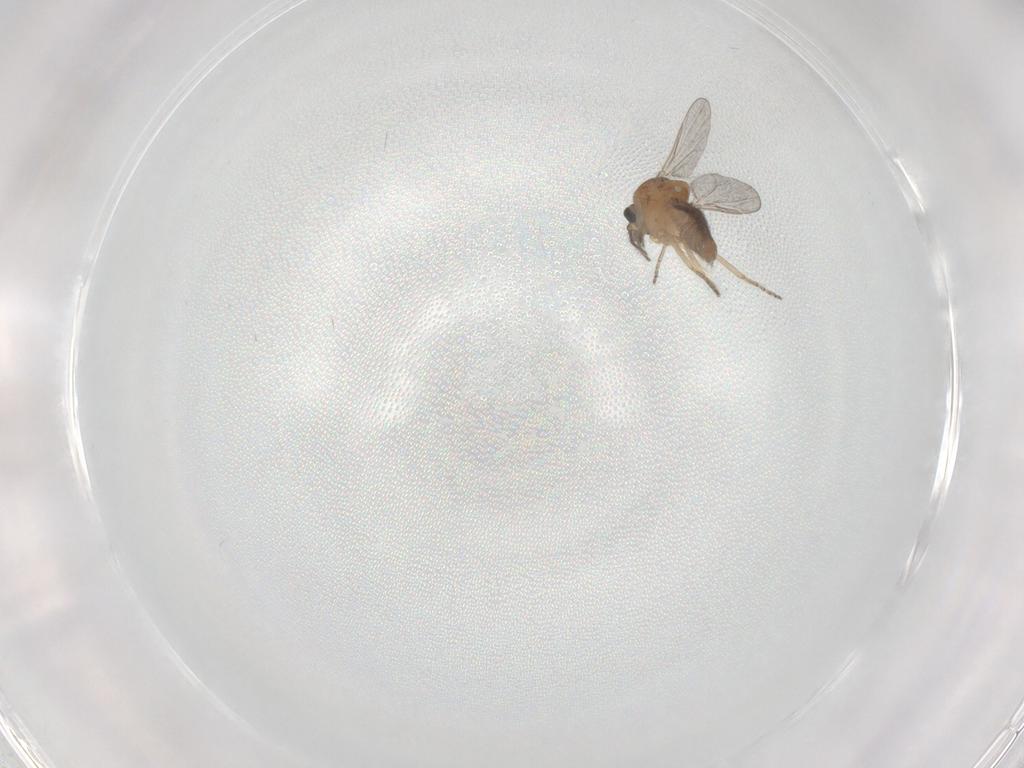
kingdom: Animalia
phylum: Arthropoda
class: Insecta
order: Diptera
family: Ceratopogonidae
